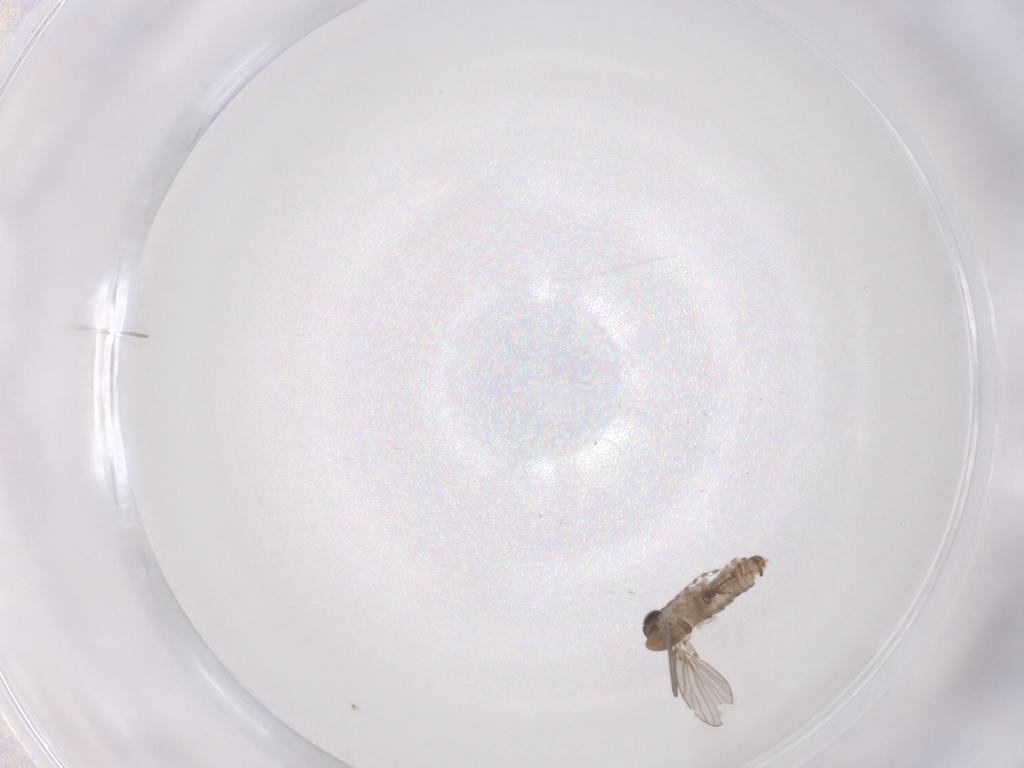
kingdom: Animalia
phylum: Arthropoda
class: Insecta
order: Diptera
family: Psychodidae
